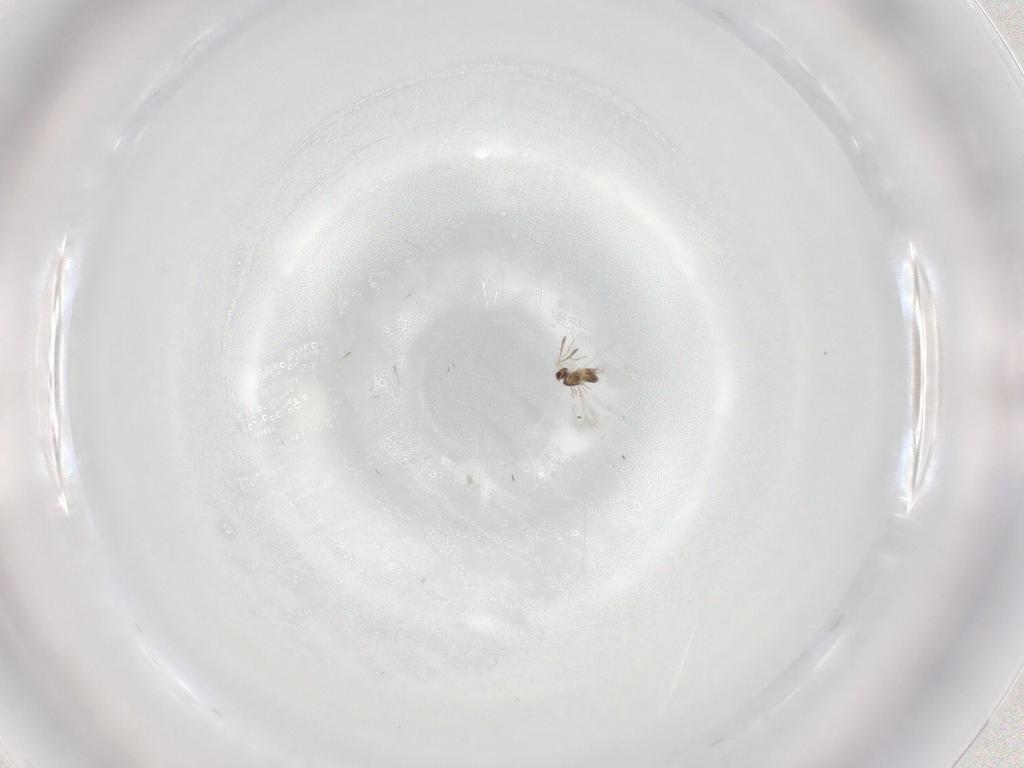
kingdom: Animalia
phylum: Arthropoda
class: Insecta
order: Hymenoptera
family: Mymaridae
